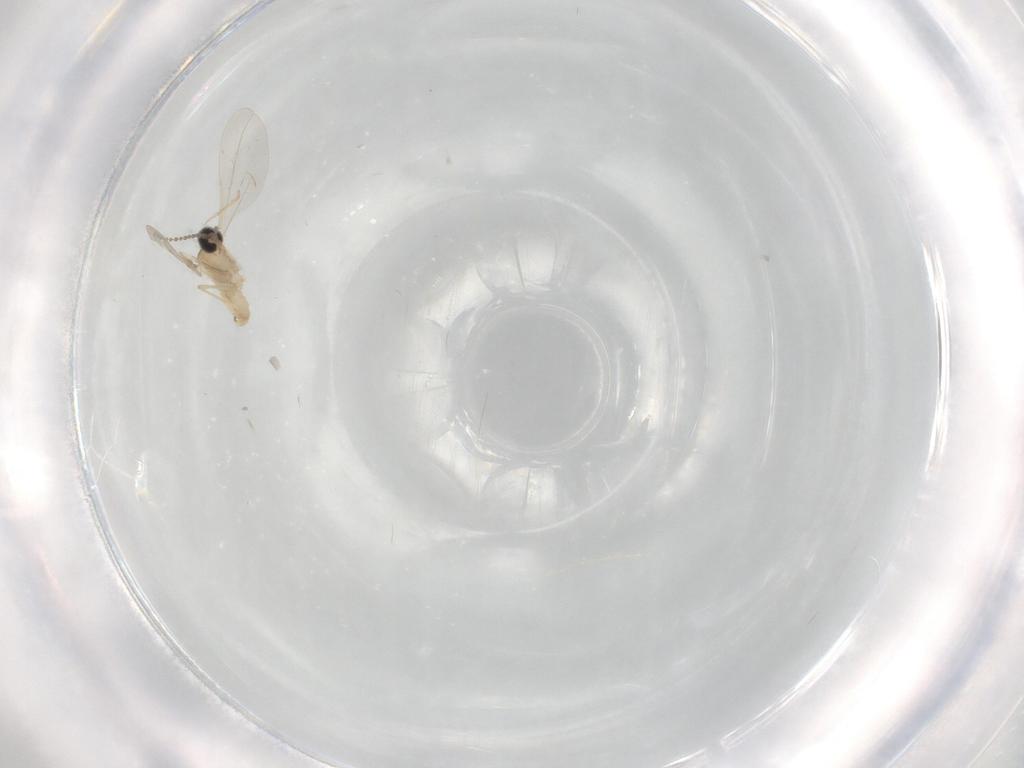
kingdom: Animalia
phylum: Arthropoda
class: Insecta
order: Diptera
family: Cecidomyiidae
